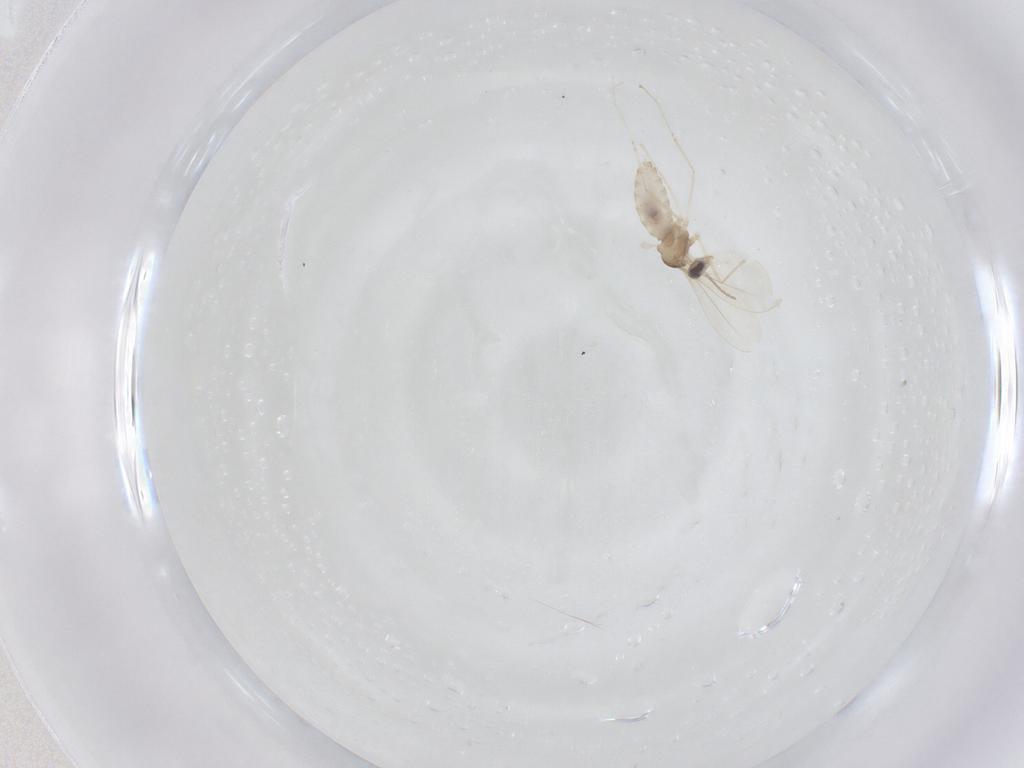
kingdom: Animalia
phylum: Arthropoda
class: Insecta
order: Diptera
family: Cecidomyiidae
